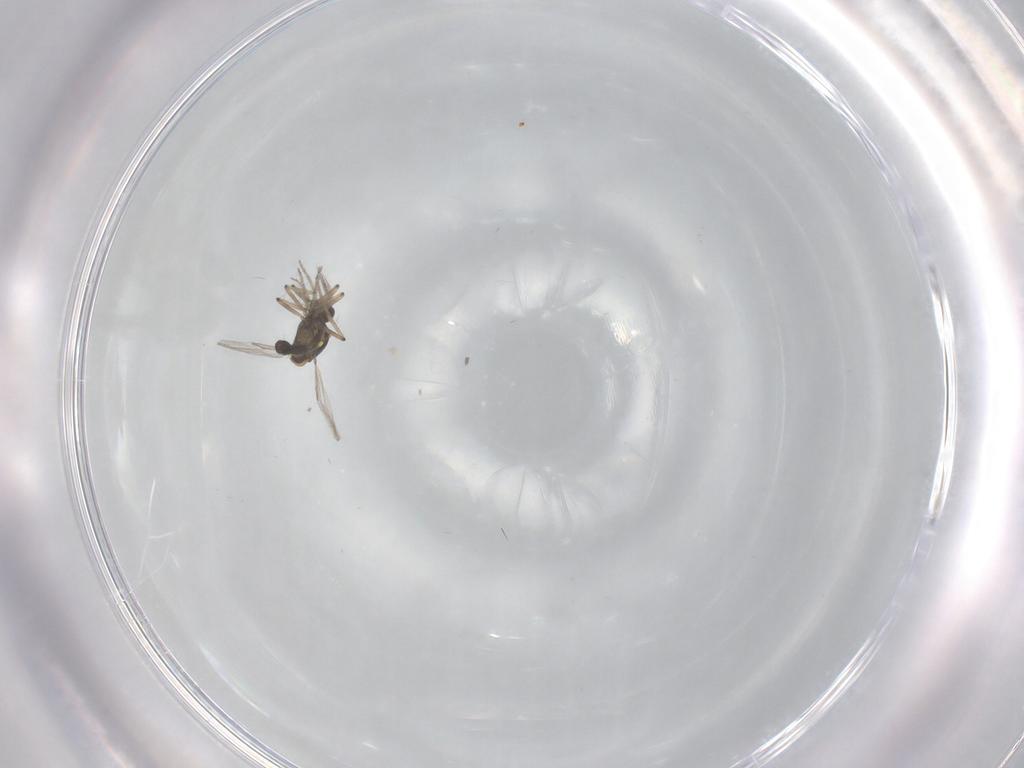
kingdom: Animalia
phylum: Arthropoda
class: Insecta
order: Diptera
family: Ceratopogonidae
